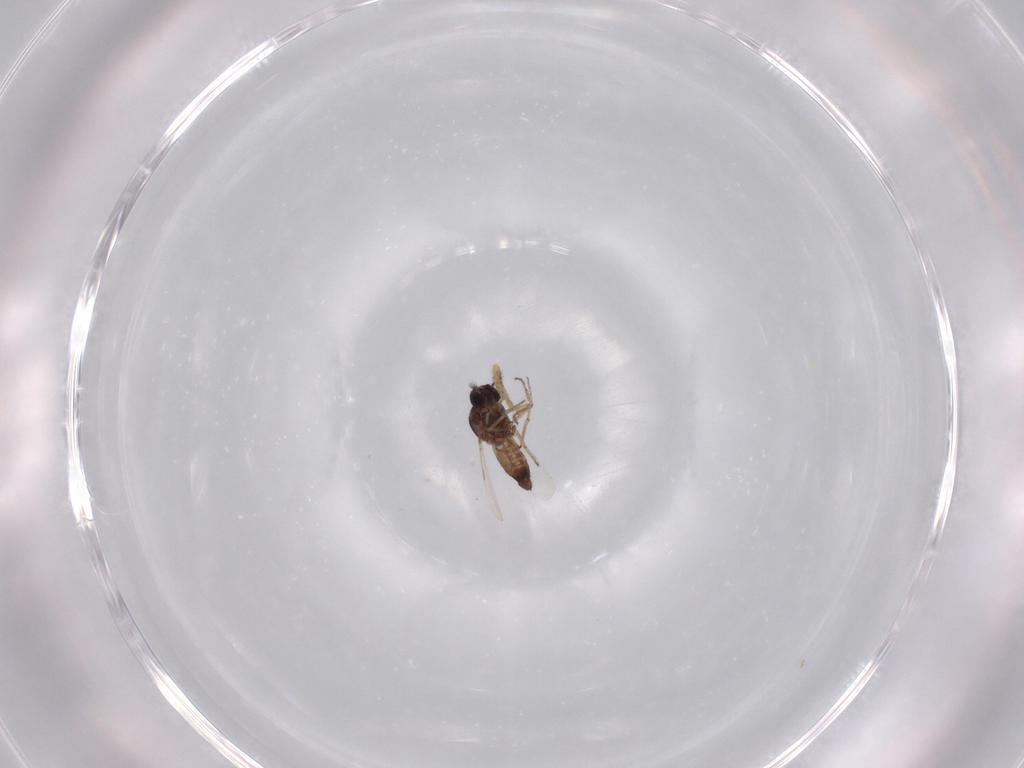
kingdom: Animalia
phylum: Arthropoda
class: Insecta
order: Diptera
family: Ceratopogonidae
